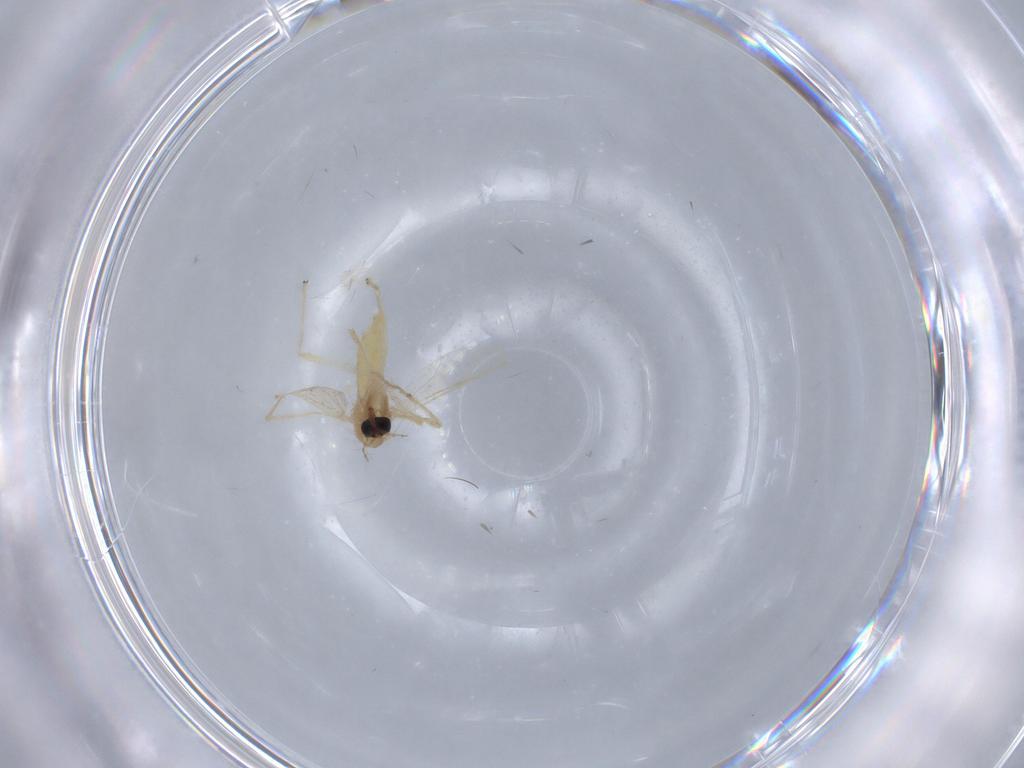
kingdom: Animalia
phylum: Arthropoda
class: Insecta
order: Diptera
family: Chironomidae
